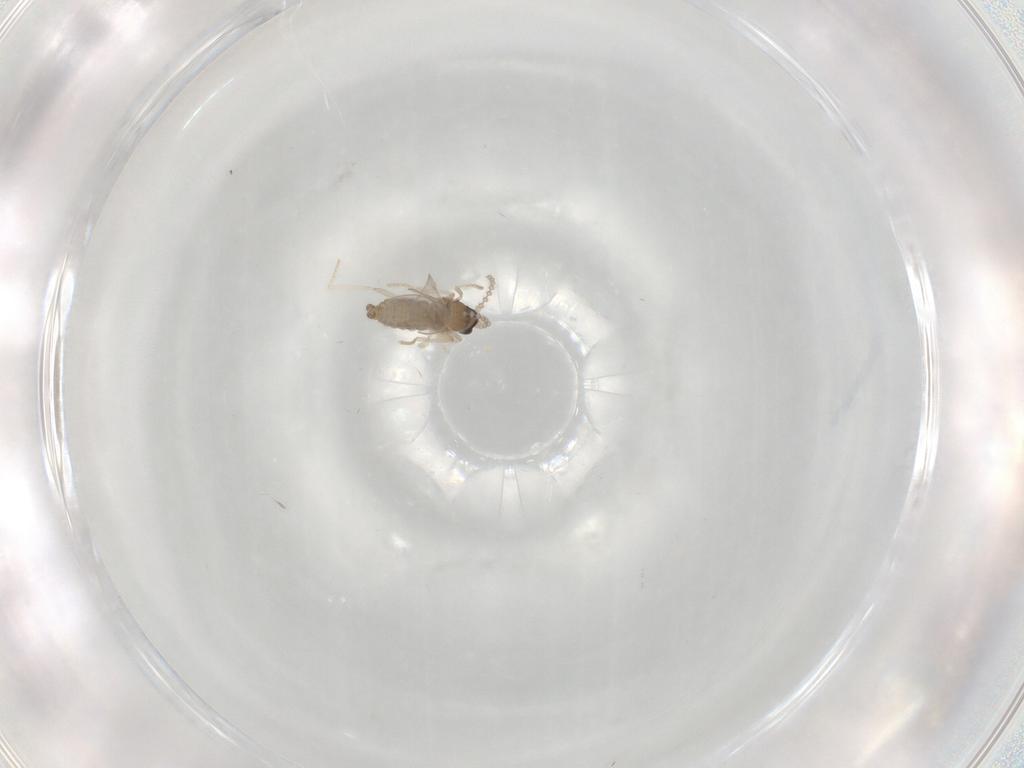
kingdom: Animalia
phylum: Arthropoda
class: Insecta
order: Diptera
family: Cecidomyiidae
